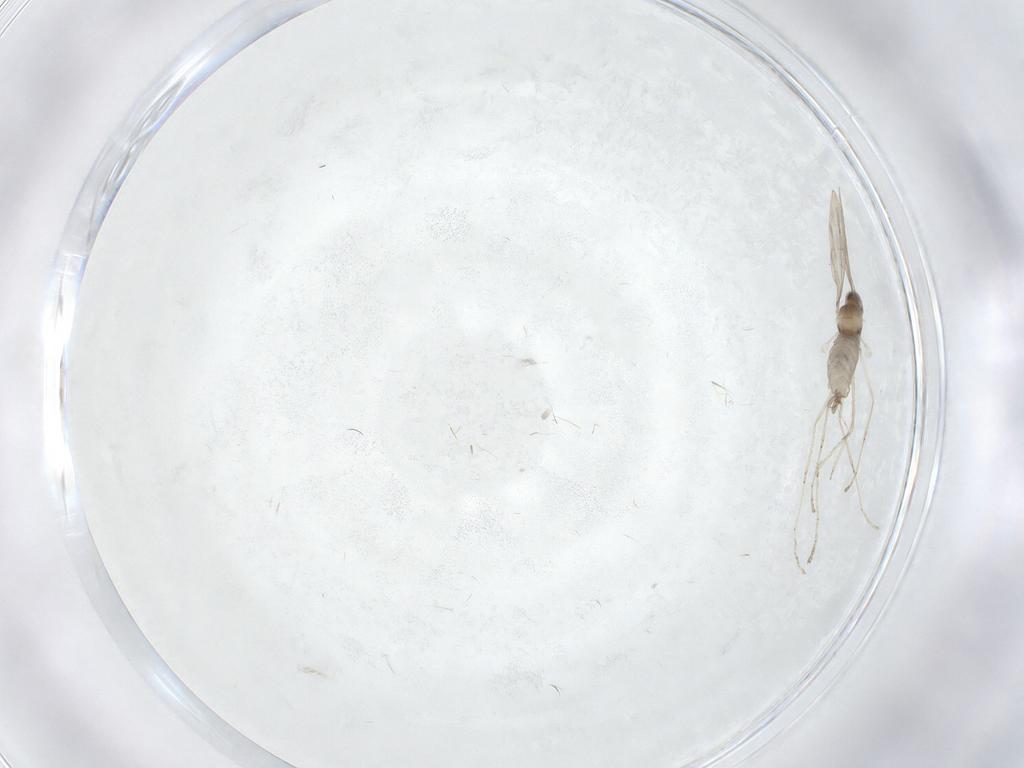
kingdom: Animalia
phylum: Arthropoda
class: Insecta
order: Diptera
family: Cecidomyiidae
